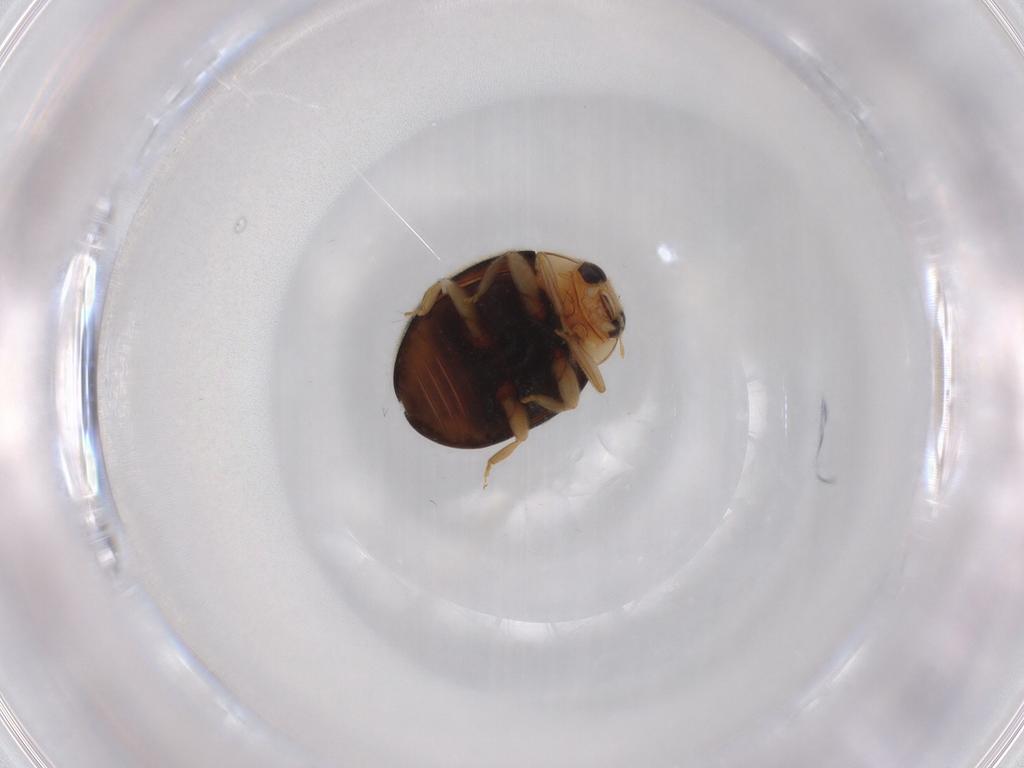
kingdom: Animalia
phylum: Arthropoda
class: Insecta
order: Coleoptera
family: Coccinellidae
